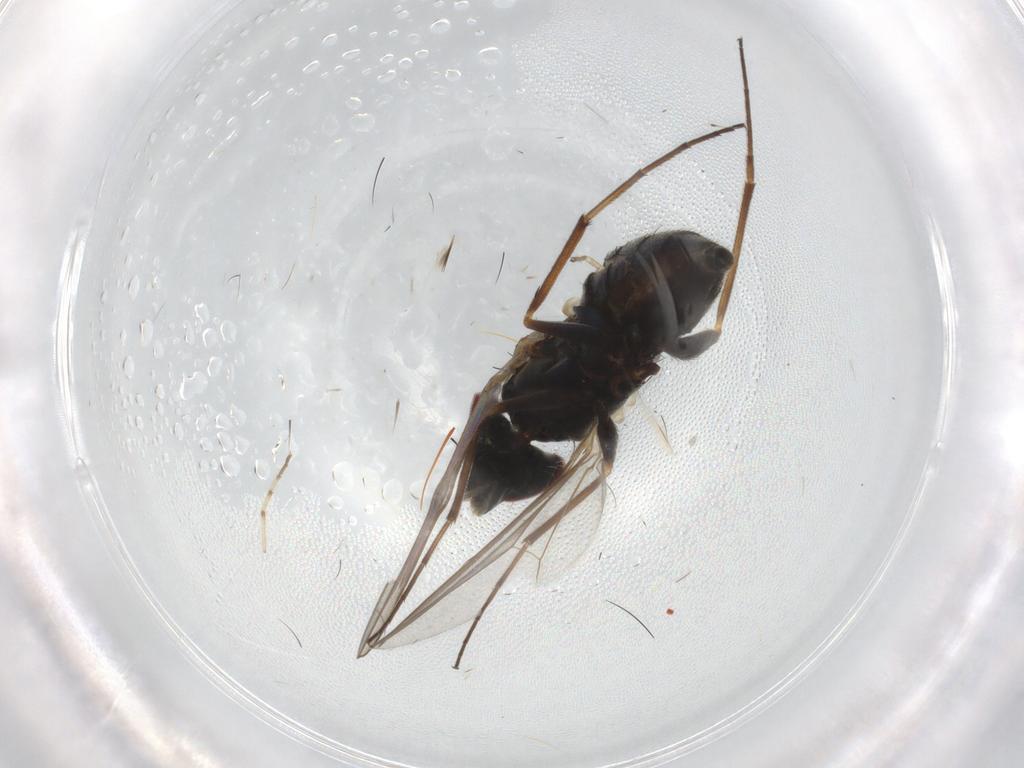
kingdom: Animalia
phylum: Arthropoda
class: Insecta
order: Diptera
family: Dolichopodidae
